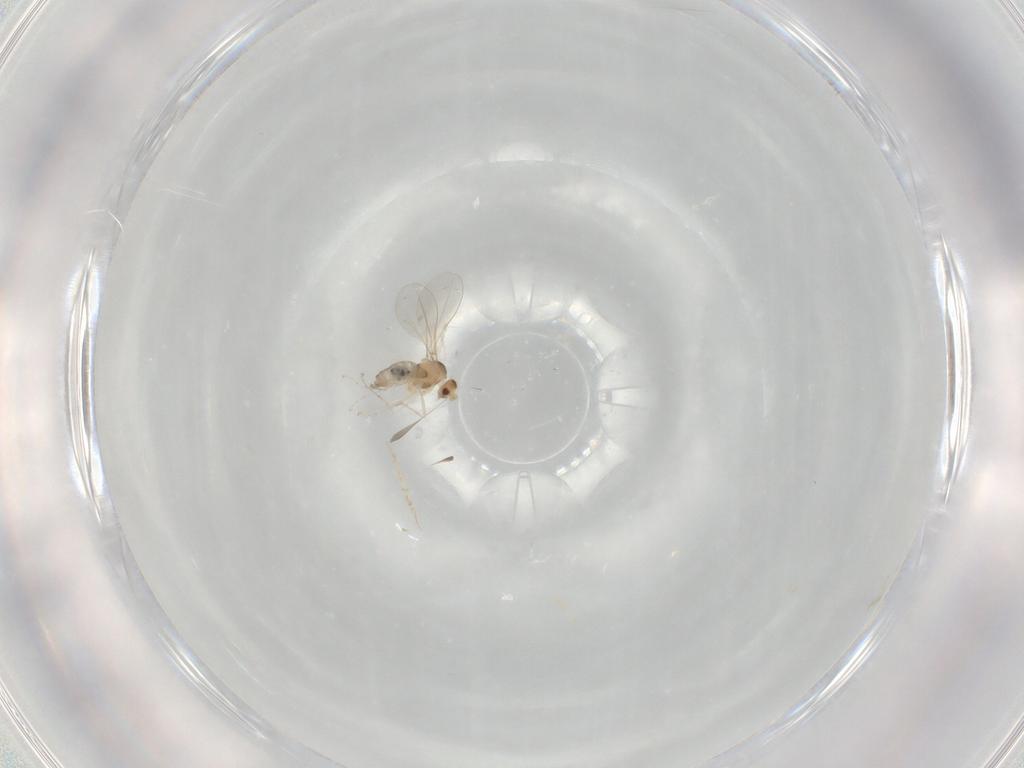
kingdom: Animalia
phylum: Arthropoda
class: Insecta
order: Diptera
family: Cecidomyiidae
